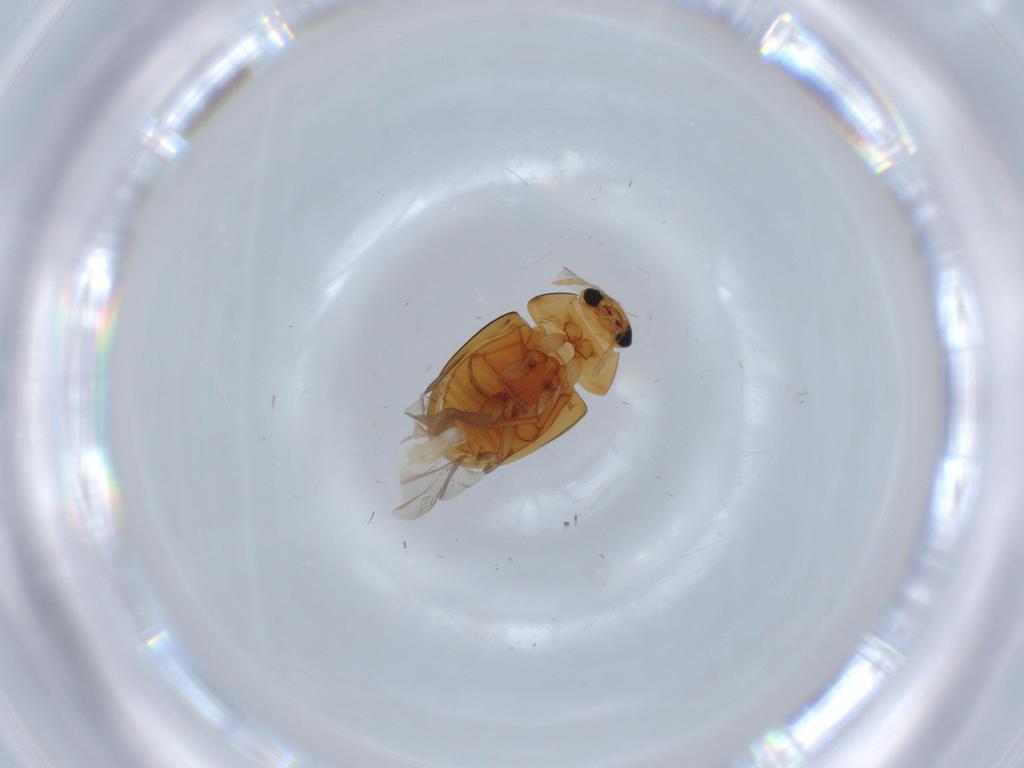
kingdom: Animalia
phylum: Arthropoda
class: Insecta
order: Coleoptera
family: Phalacridae
